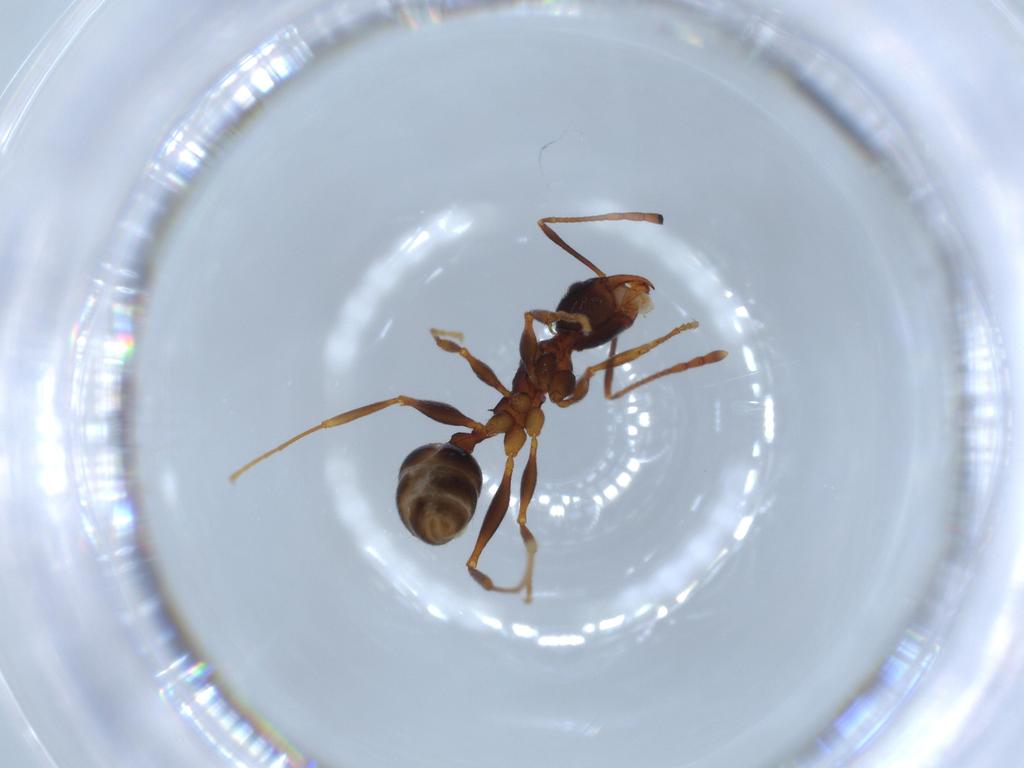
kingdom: Animalia
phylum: Arthropoda
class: Insecta
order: Hymenoptera
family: Formicidae
